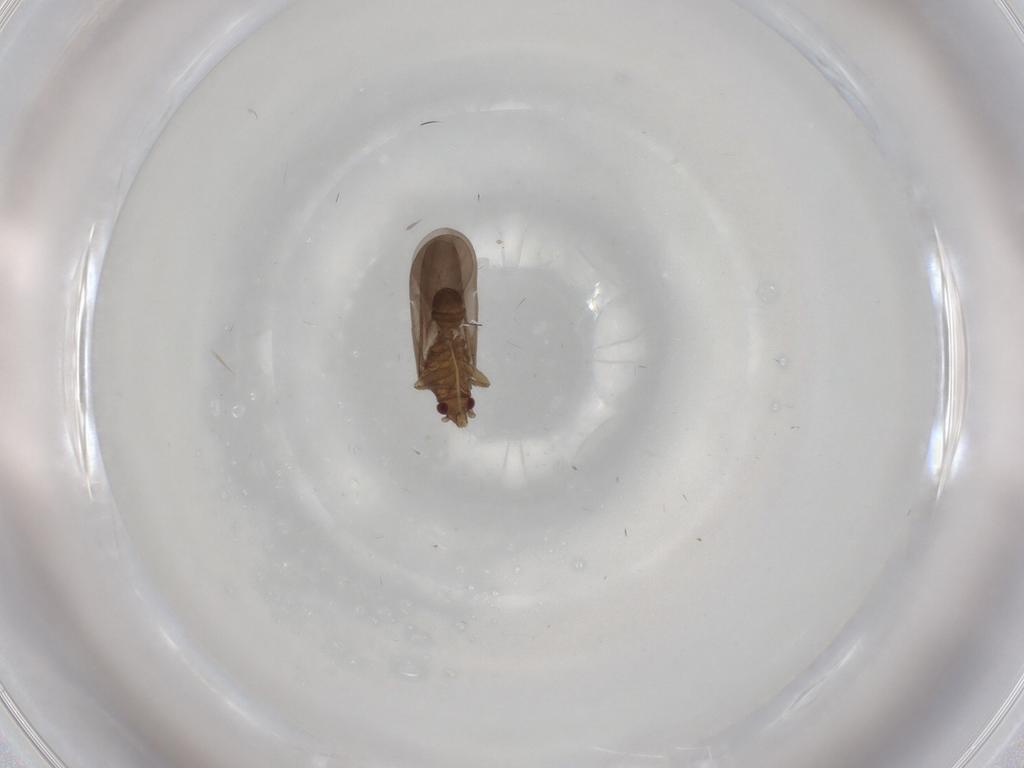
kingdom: Animalia
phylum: Arthropoda
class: Insecta
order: Hemiptera
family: Ceratocombidae
